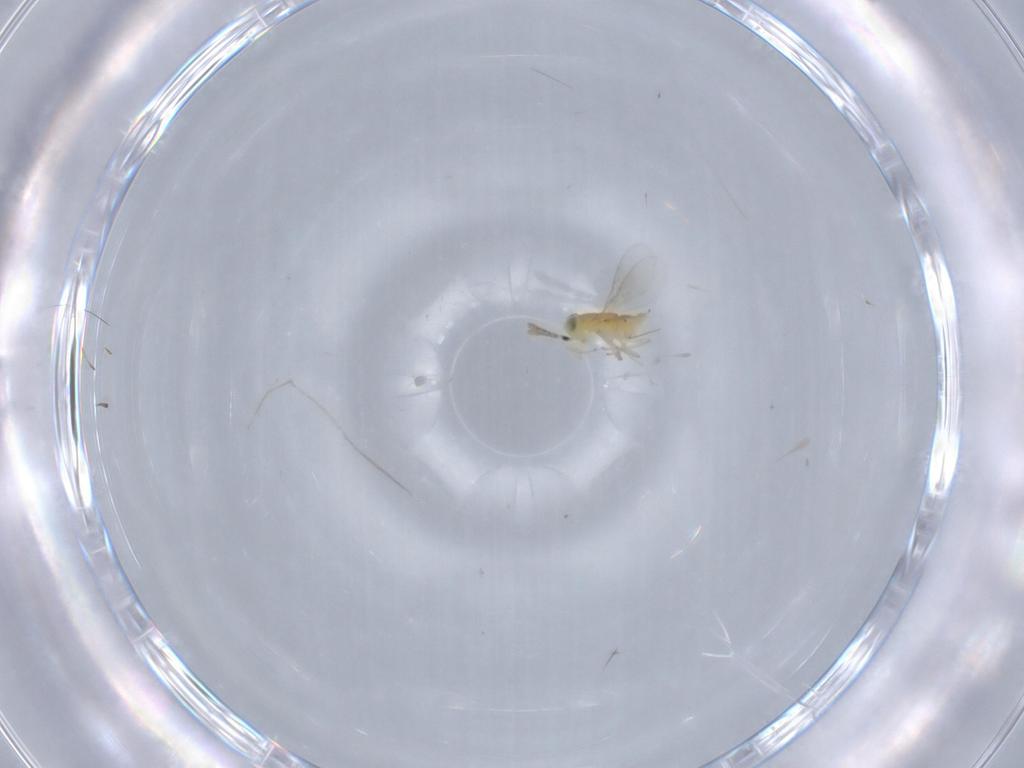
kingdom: Animalia
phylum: Arthropoda
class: Insecta
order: Hymenoptera
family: Encyrtidae
